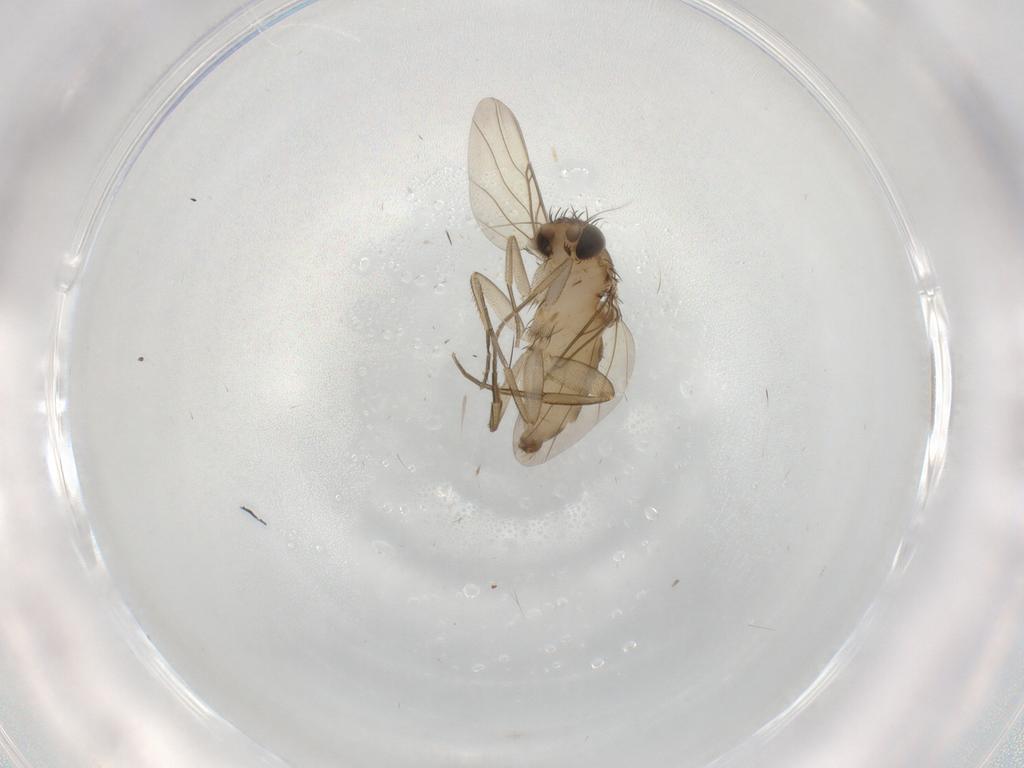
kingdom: Animalia
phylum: Arthropoda
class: Insecta
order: Diptera
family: Phoridae
